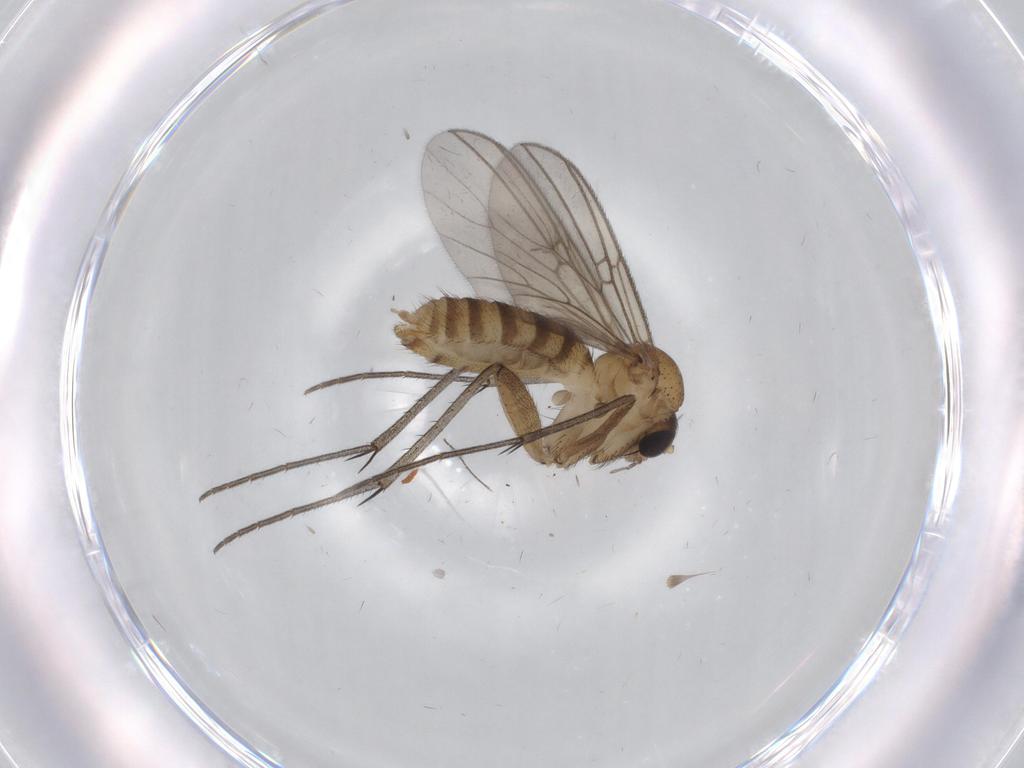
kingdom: Animalia
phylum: Arthropoda
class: Insecta
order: Diptera
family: Mycetophilidae
